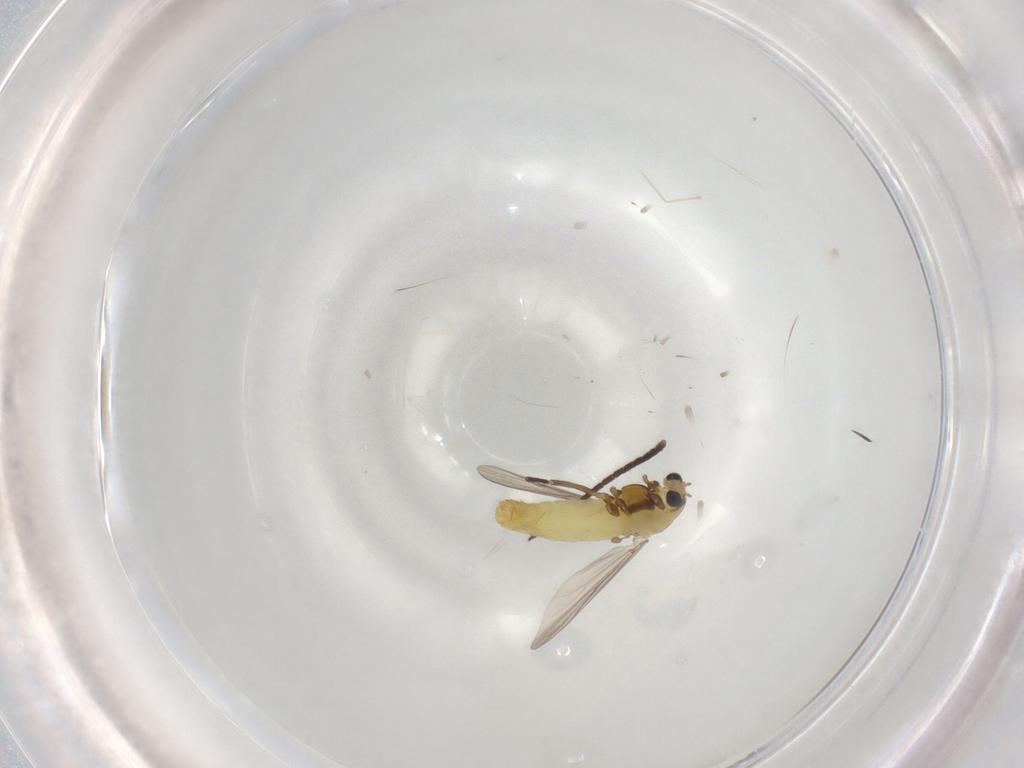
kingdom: Animalia
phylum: Arthropoda
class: Insecta
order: Diptera
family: Chironomidae
